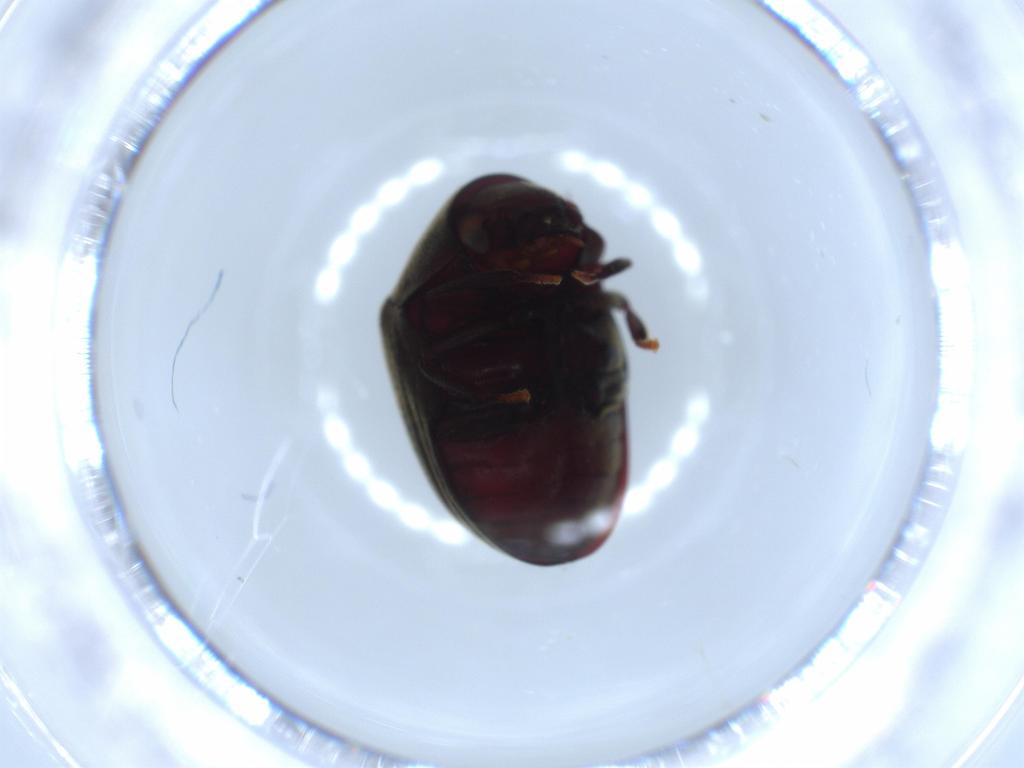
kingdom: Animalia
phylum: Arthropoda
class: Insecta
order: Coleoptera
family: Ptinidae
